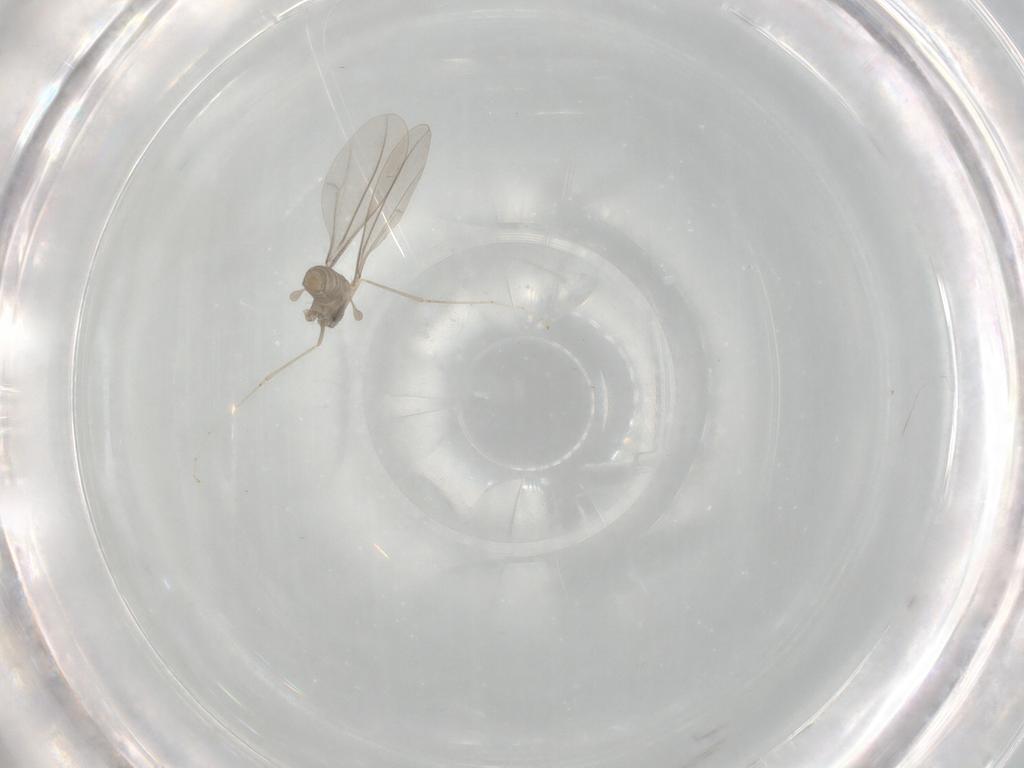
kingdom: Animalia
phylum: Arthropoda
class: Insecta
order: Diptera
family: Cecidomyiidae
